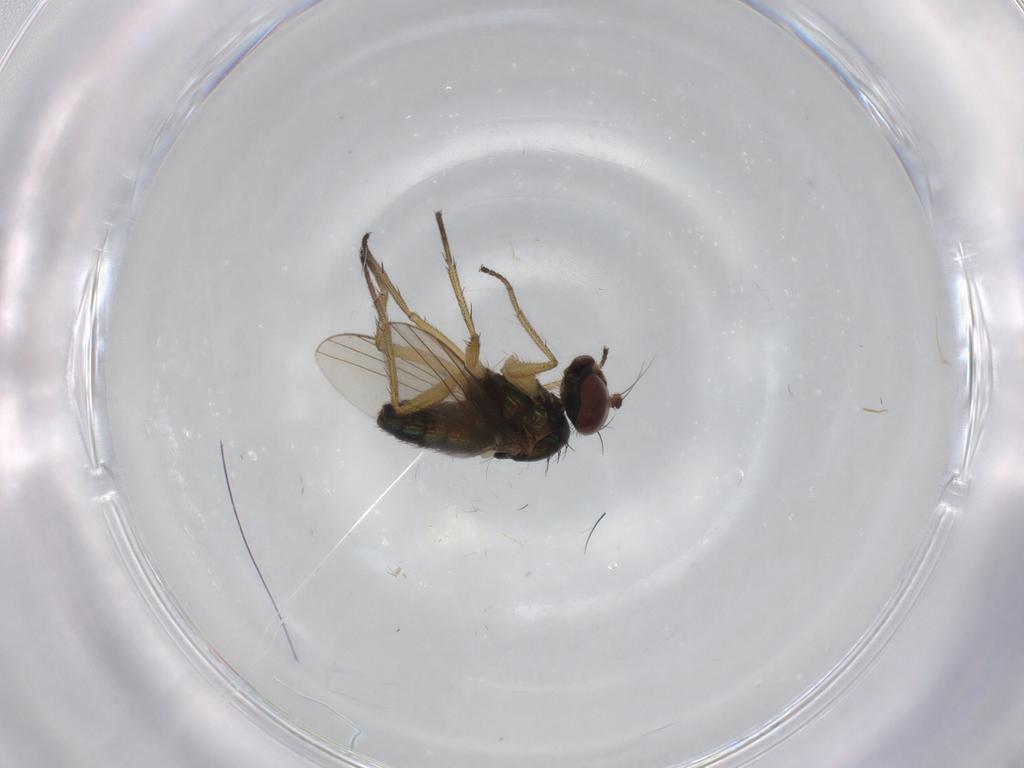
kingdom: Animalia
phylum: Arthropoda
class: Insecta
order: Diptera
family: Dolichopodidae
